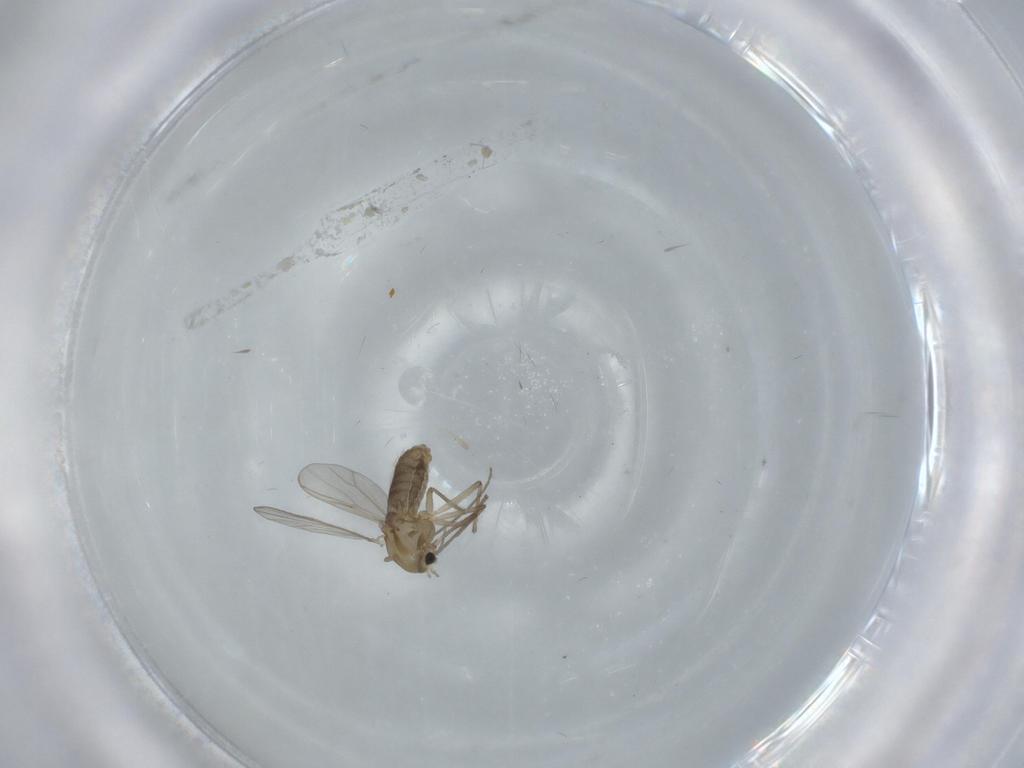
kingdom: Animalia
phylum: Arthropoda
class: Insecta
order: Diptera
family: Chironomidae
